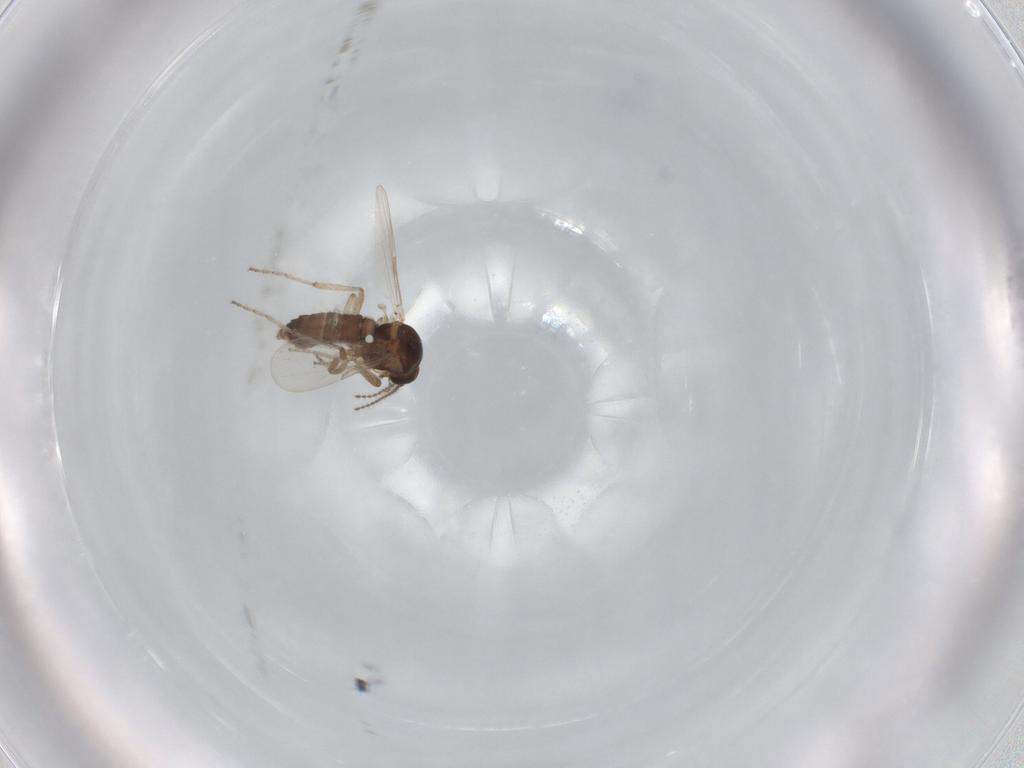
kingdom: Animalia
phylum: Arthropoda
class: Insecta
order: Diptera
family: Ceratopogonidae
